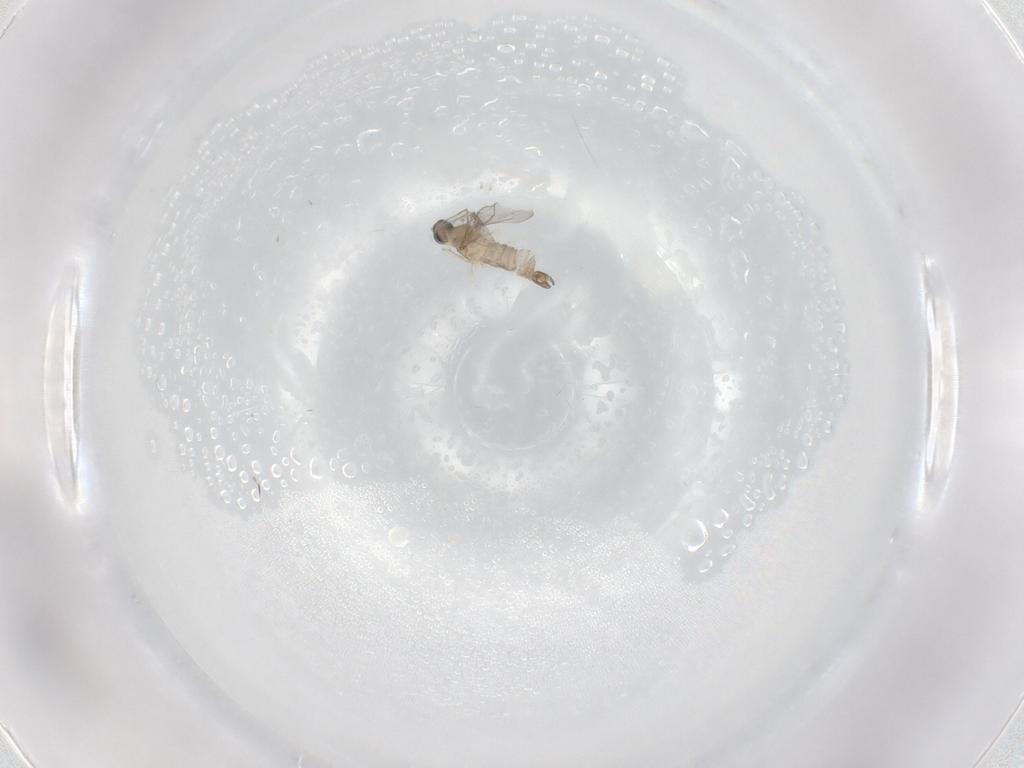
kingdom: Animalia
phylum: Arthropoda
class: Insecta
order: Diptera
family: Cecidomyiidae
